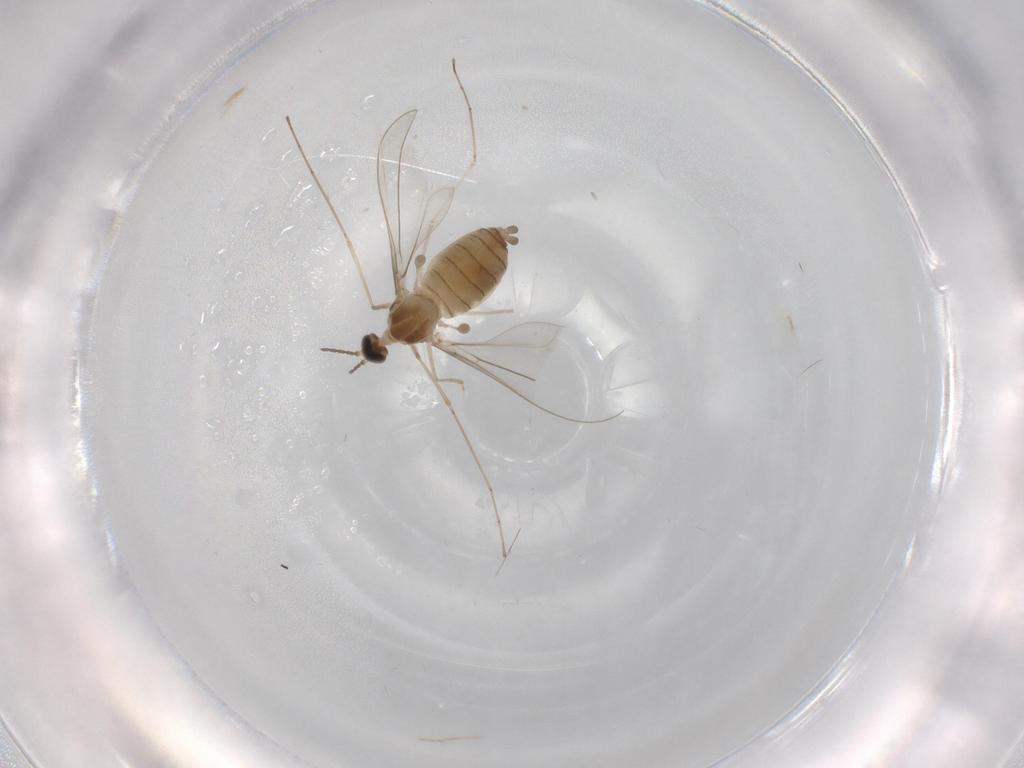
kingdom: Animalia
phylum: Arthropoda
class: Insecta
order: Diptera
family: Cecidomyiidae
